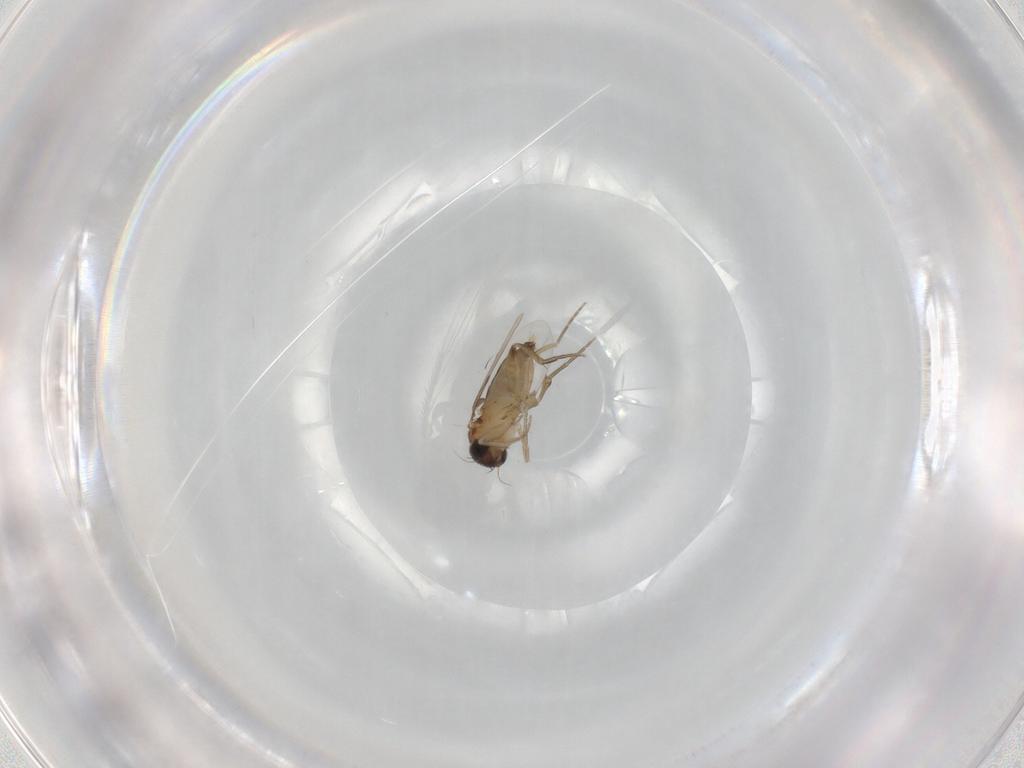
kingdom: Animalia
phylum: Arthropoda
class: Insecta
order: Diptera
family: Phoridae
